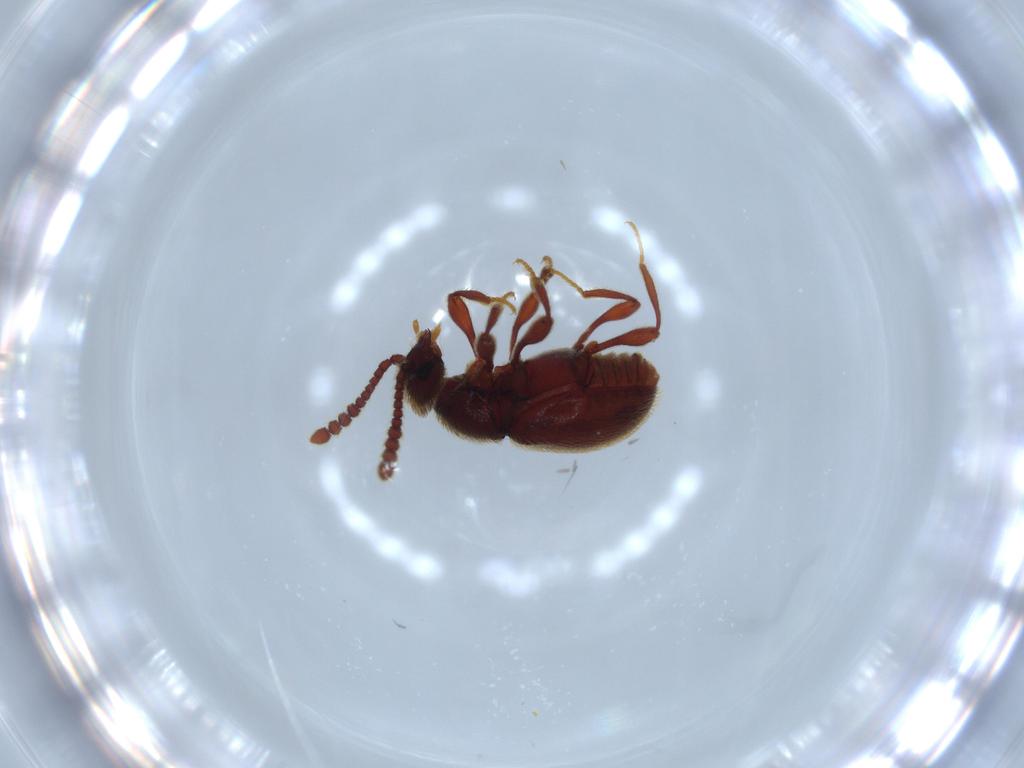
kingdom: Animalia
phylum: Arthropoda
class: Insecta
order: Coleoptera
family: Staphylinidae
